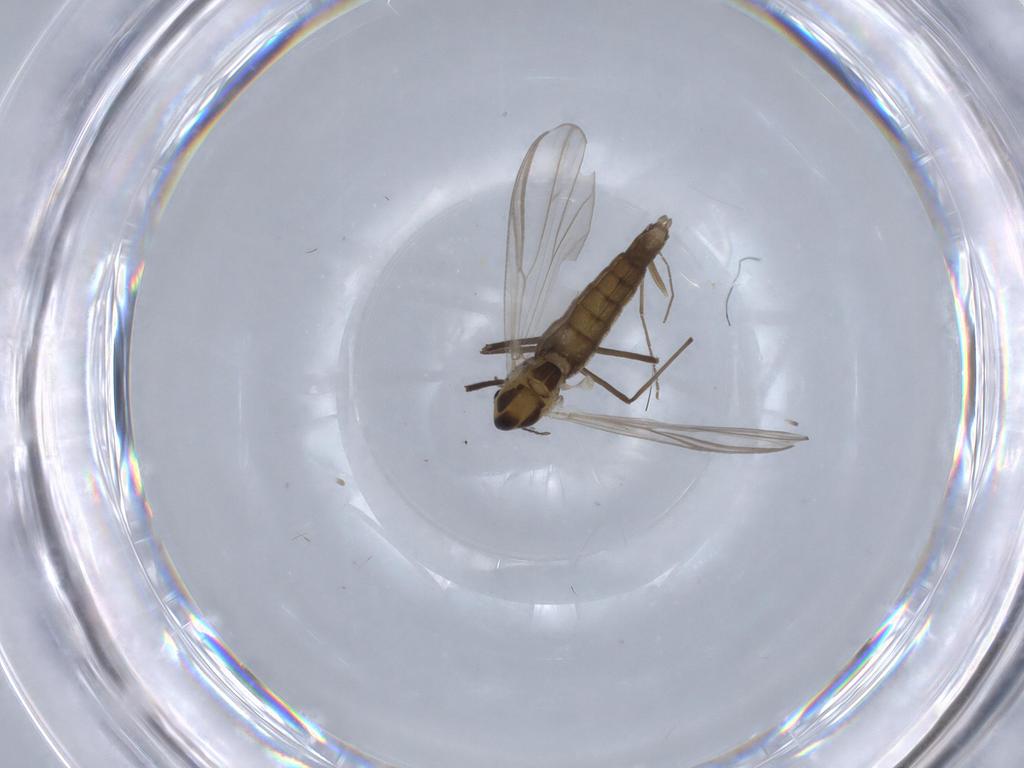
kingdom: Animalia
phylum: Arthropoda
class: Insecta
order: Diptera
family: Chironomidae
